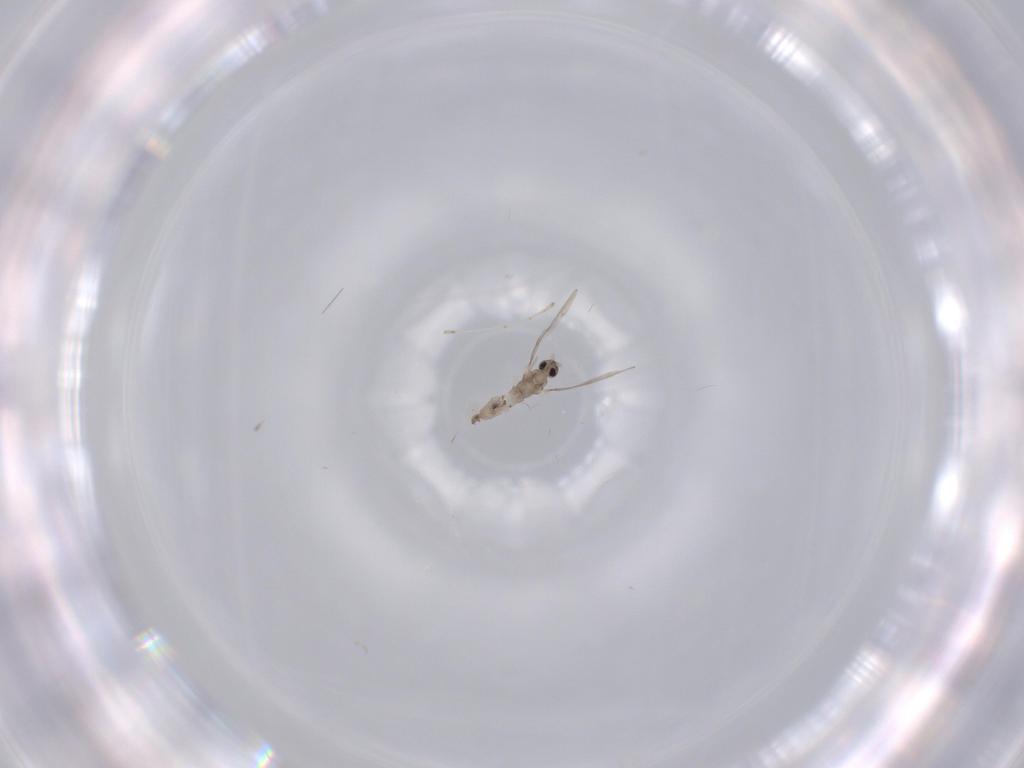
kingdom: Animalia
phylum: Arthropoda
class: Insecta
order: Diptera
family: Cecidomyiidae
